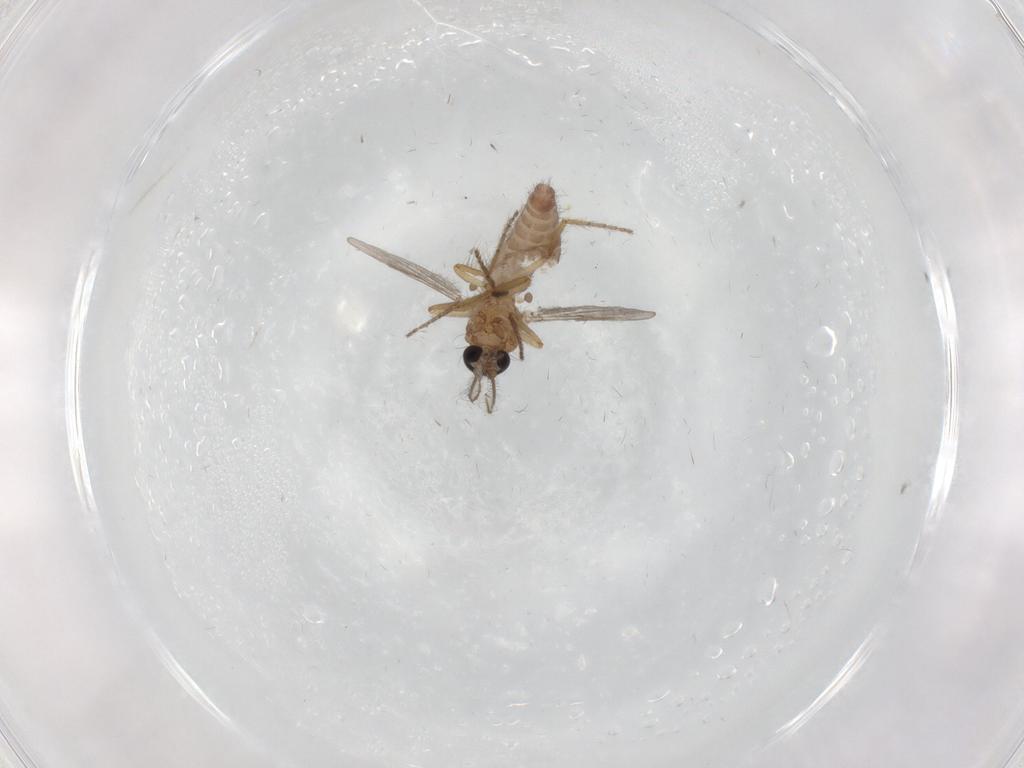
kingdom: Animalia
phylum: Arthropoda
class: Insecta
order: Diptera
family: Ceratopogonidae
